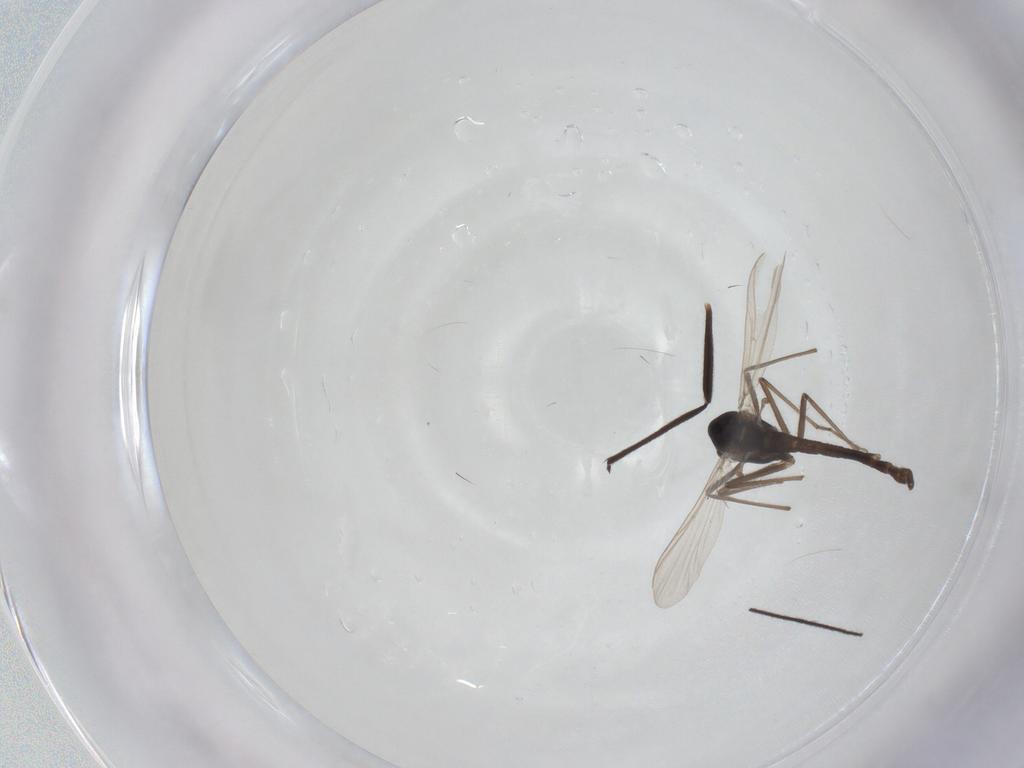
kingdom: Animalia
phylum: Arthropoda
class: Insecta
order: Diptera
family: Chironomidae
